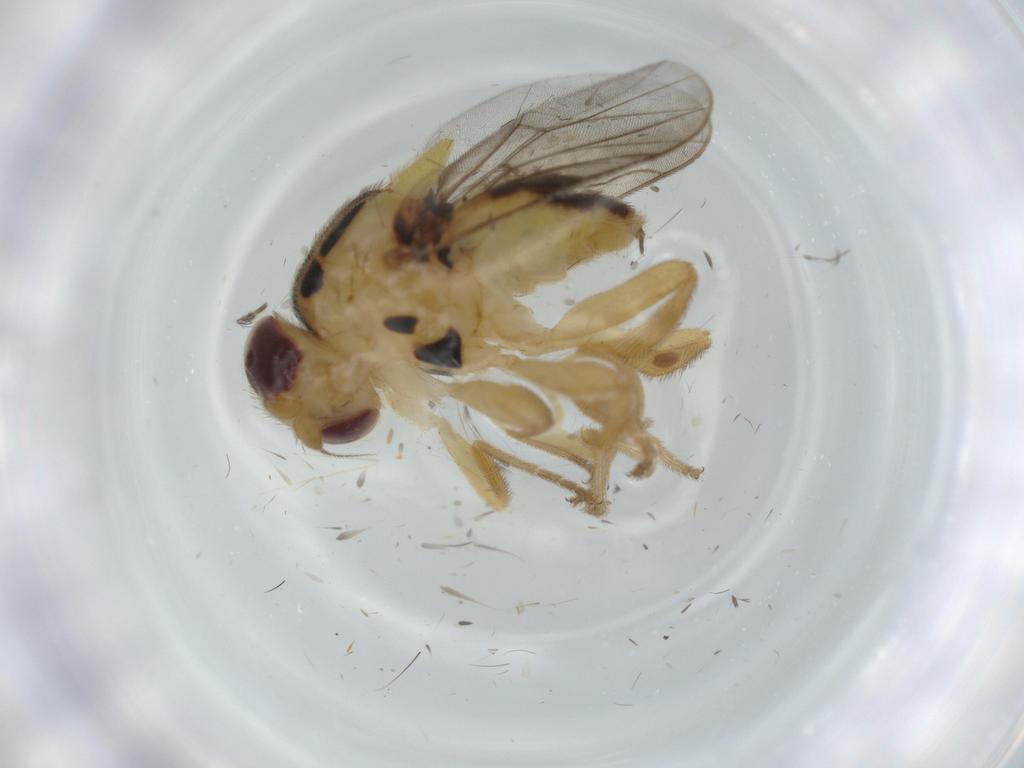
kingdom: Animalia
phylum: Arthropoda
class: Insecta
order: Diptera
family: Chloropidae
